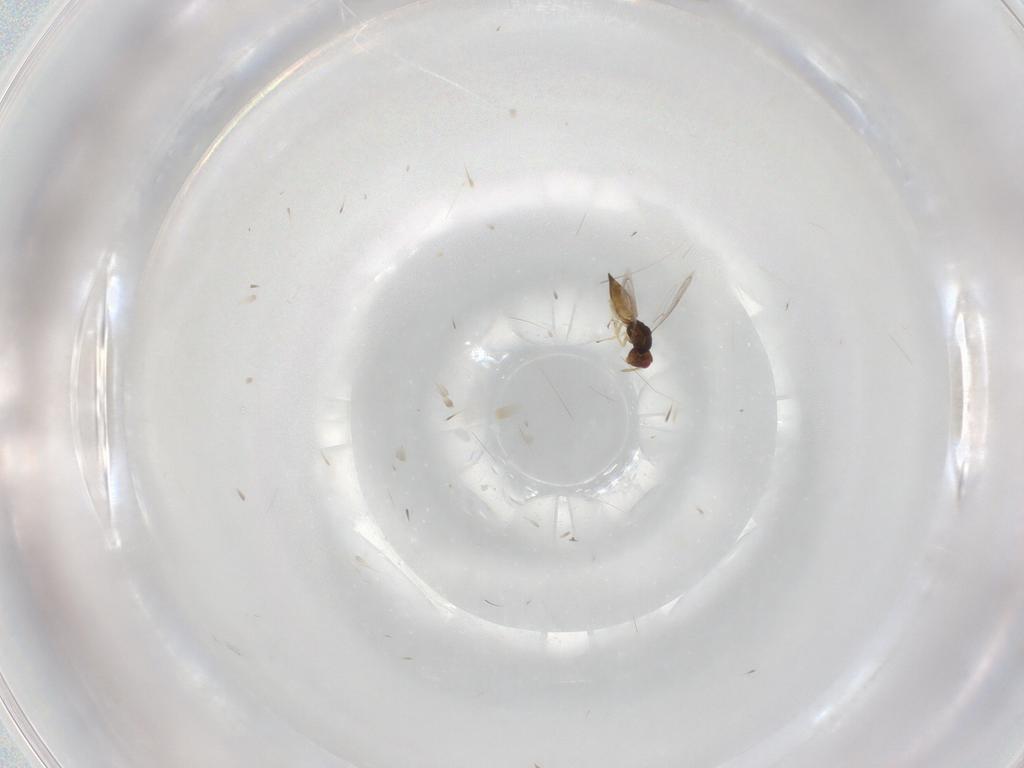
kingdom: Animalia
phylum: Arthropoda
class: Insecta
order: Hymenoptera
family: Eulophidae
